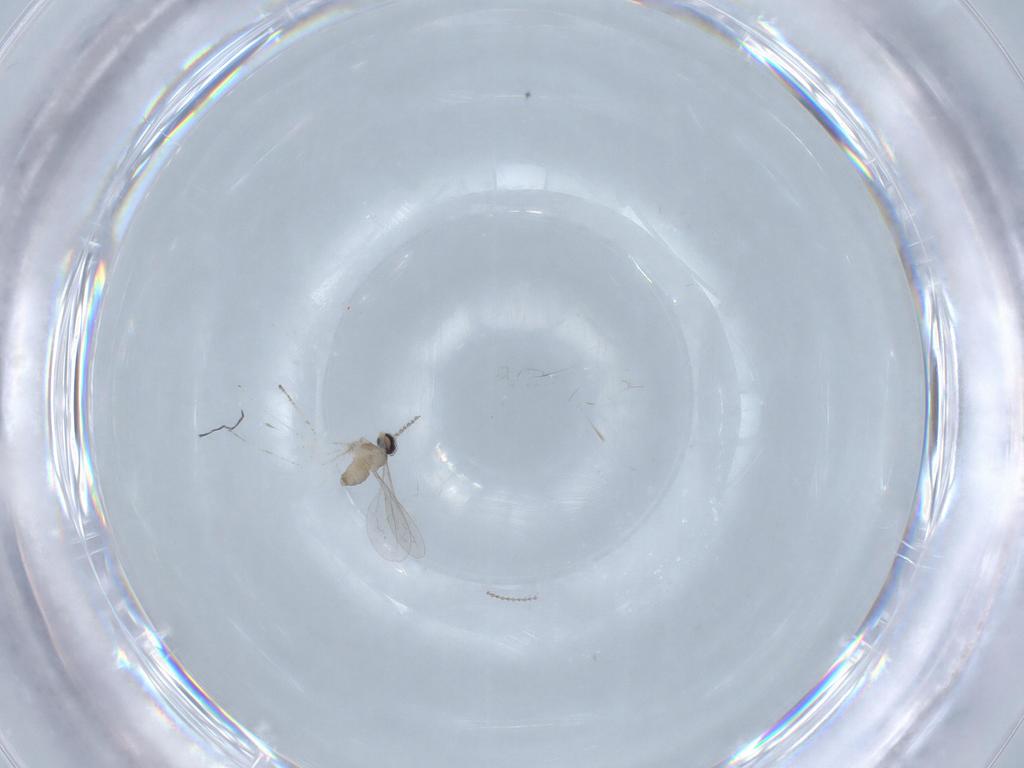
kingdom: Animalia
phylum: Arthropoda
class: Insecta
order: Diptera
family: Cecidomyiidae
